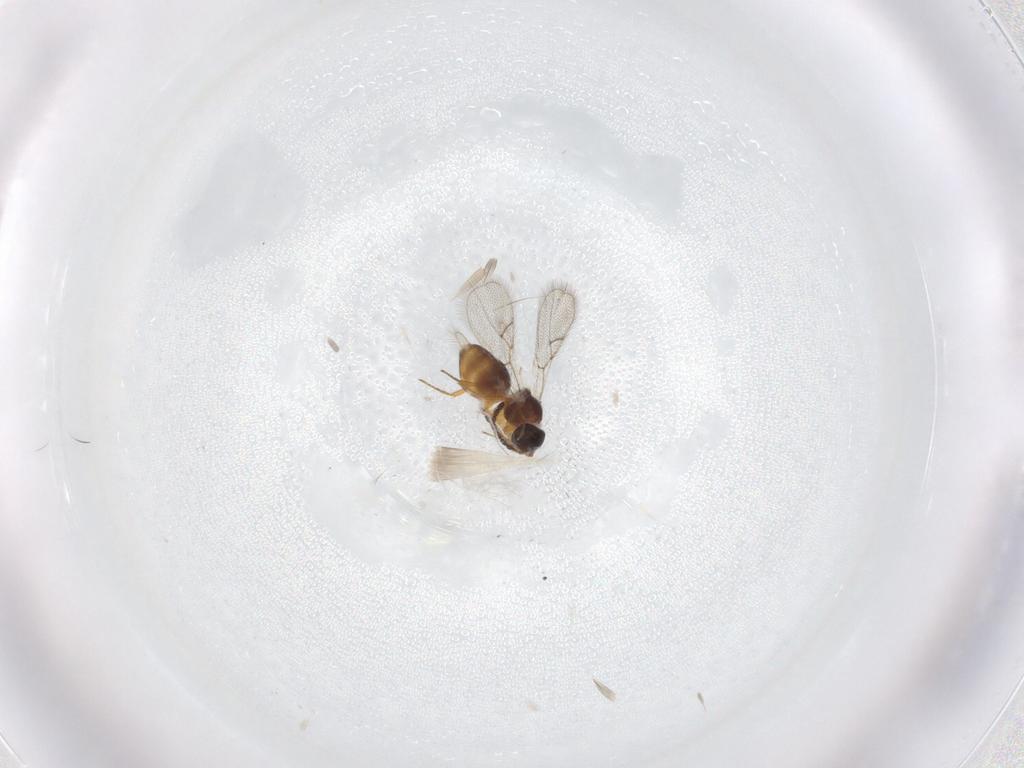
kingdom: Animalia
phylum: Arthropoda
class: Insecta
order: Hymenoptera
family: Figitidae
